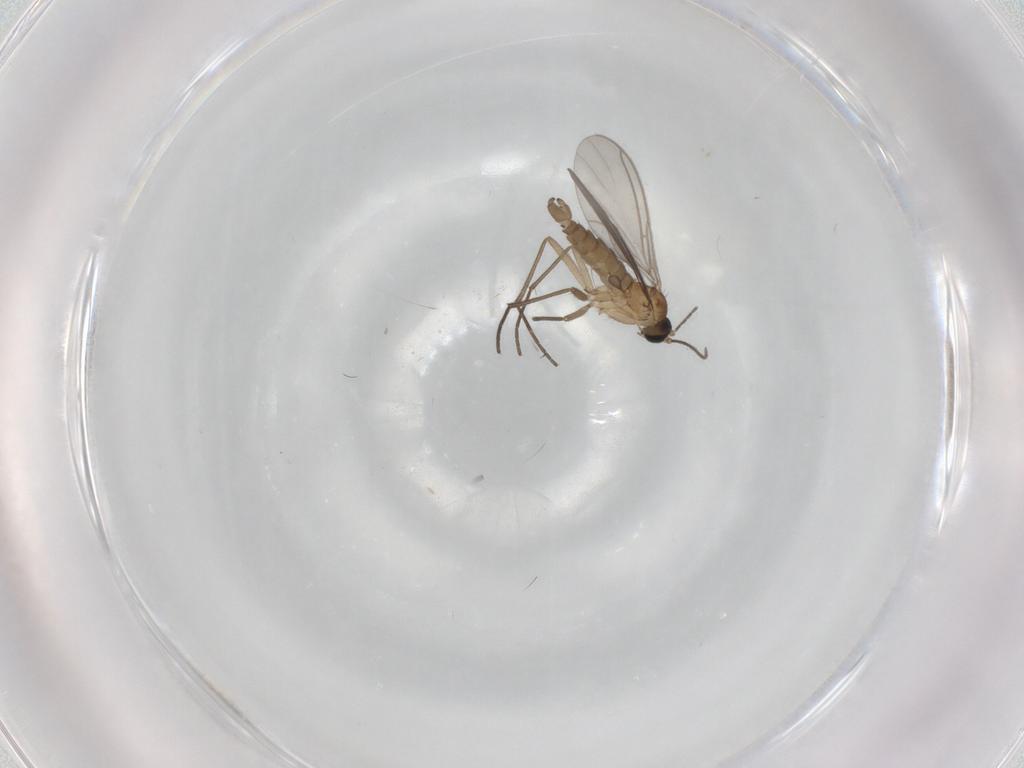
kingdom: Animalia
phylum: Arthropoda
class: Insecta
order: Diptera
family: Sciaridae
